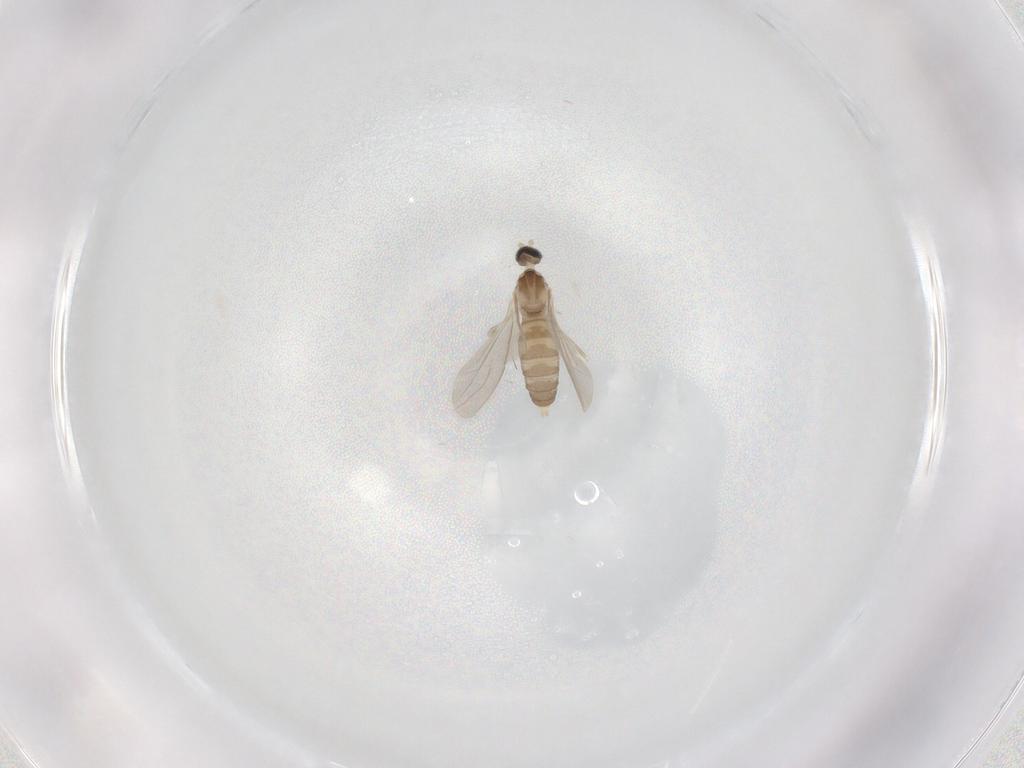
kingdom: Animalia
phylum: Arthropoda
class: Insecta
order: Diptera
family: Cecidomyiidae
